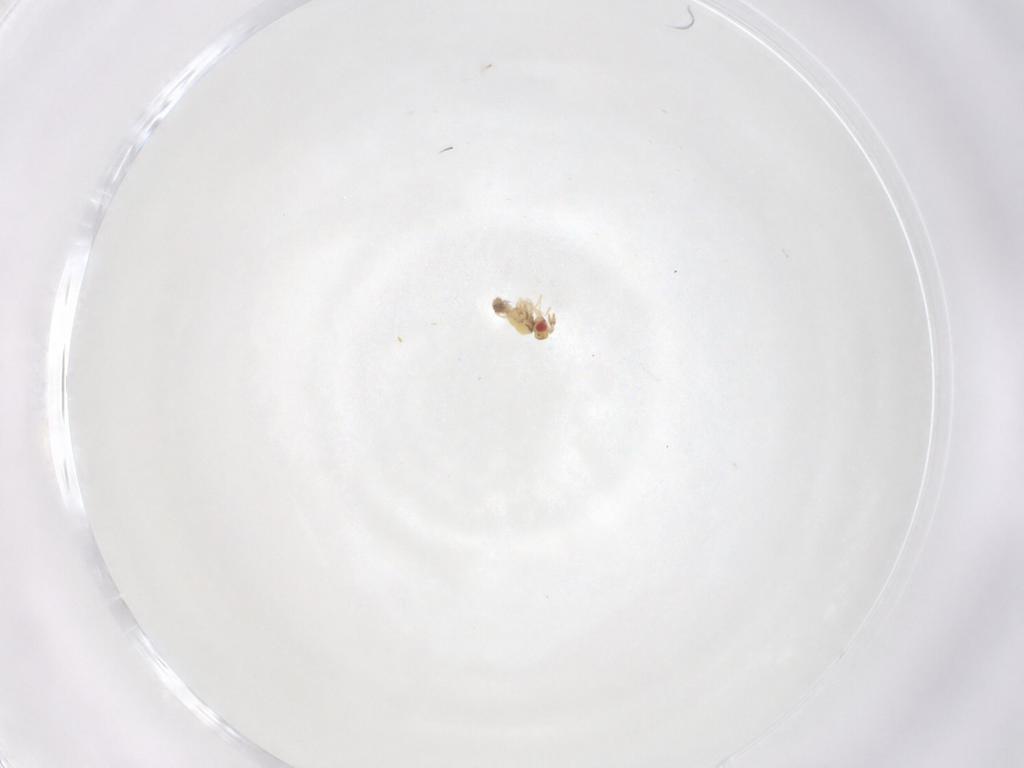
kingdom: Animalia
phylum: Arthropoda
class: Insecta
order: Hymenoptera
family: Trichogrammatidae
